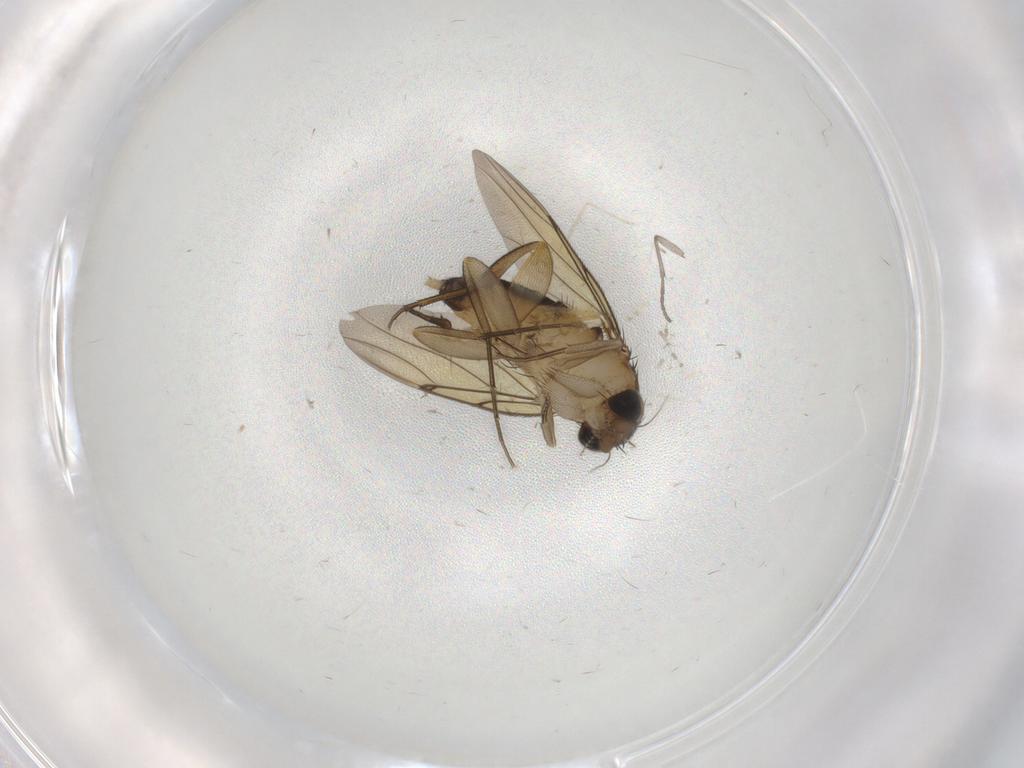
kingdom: Animalia
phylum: Arthropoda
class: Insecta
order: Diptera
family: Sciaridae
